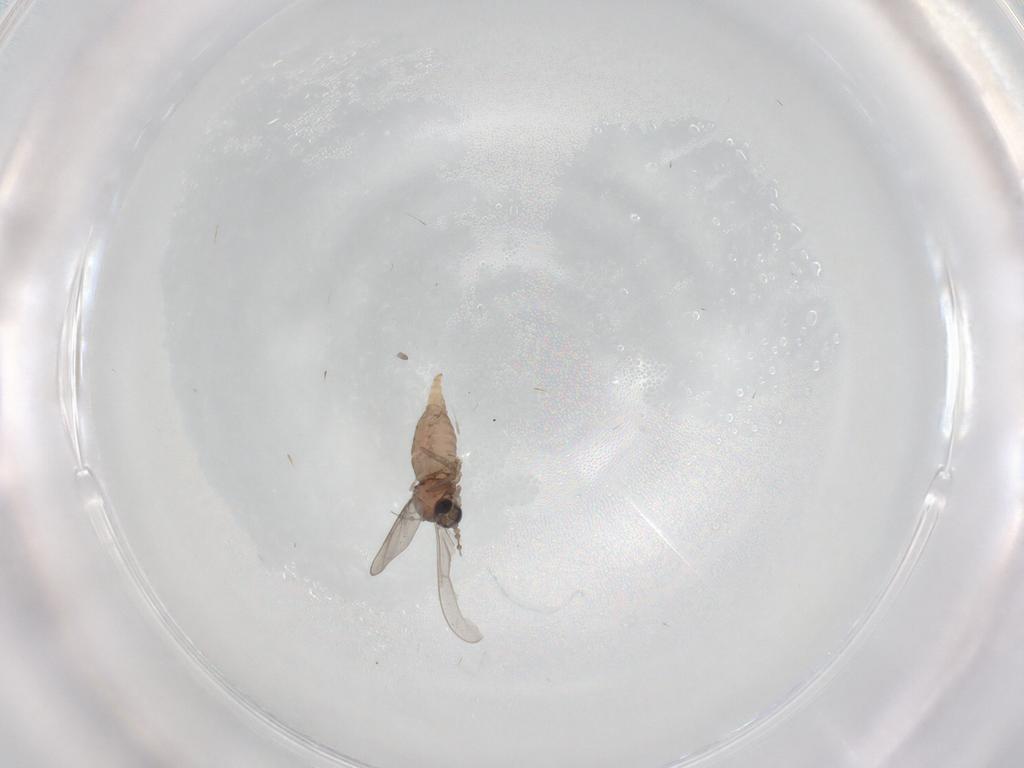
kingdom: Animalia
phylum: Arthropoda
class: Insecta
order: Diptera
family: Cecidomyiidae
